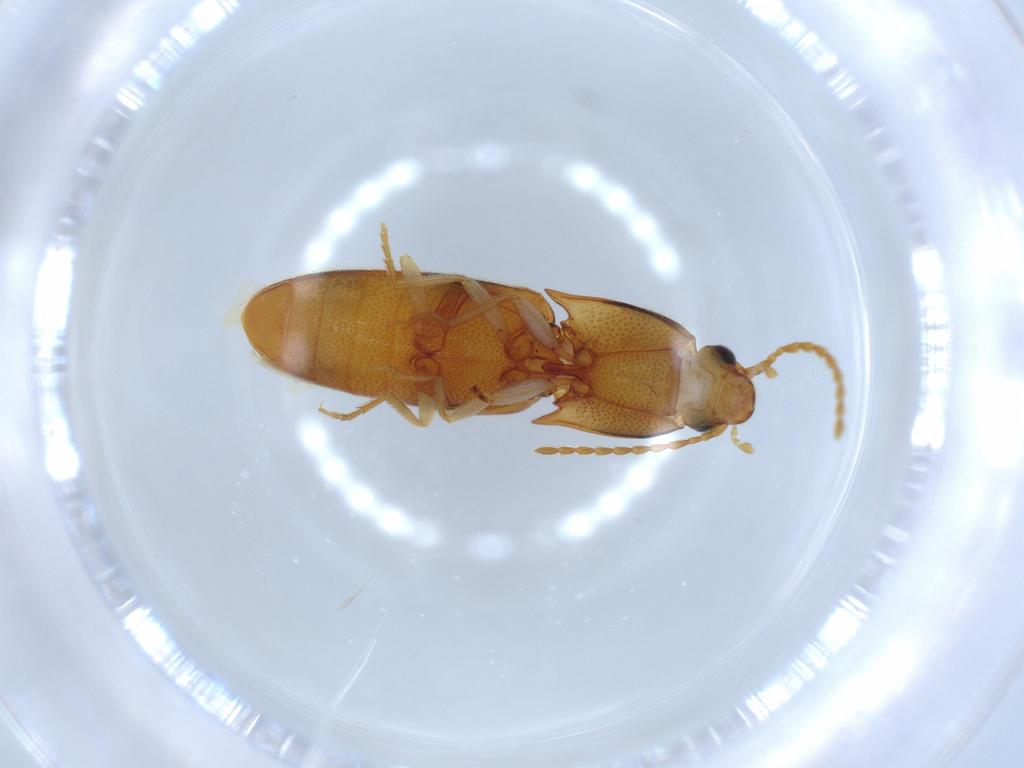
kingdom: Animalia
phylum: Arthropoda
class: Insecta
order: Coleoptera
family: Elateridae
